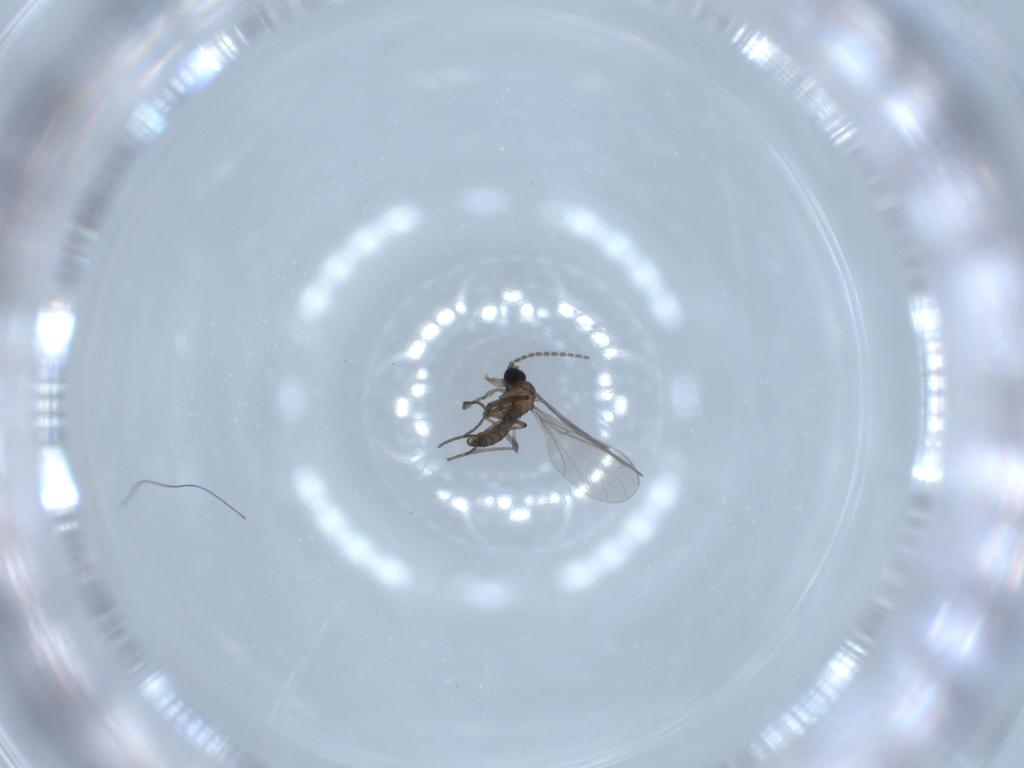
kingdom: Animalia
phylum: Arthropoda
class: Insecta
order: Diptera
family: Sciaridae
